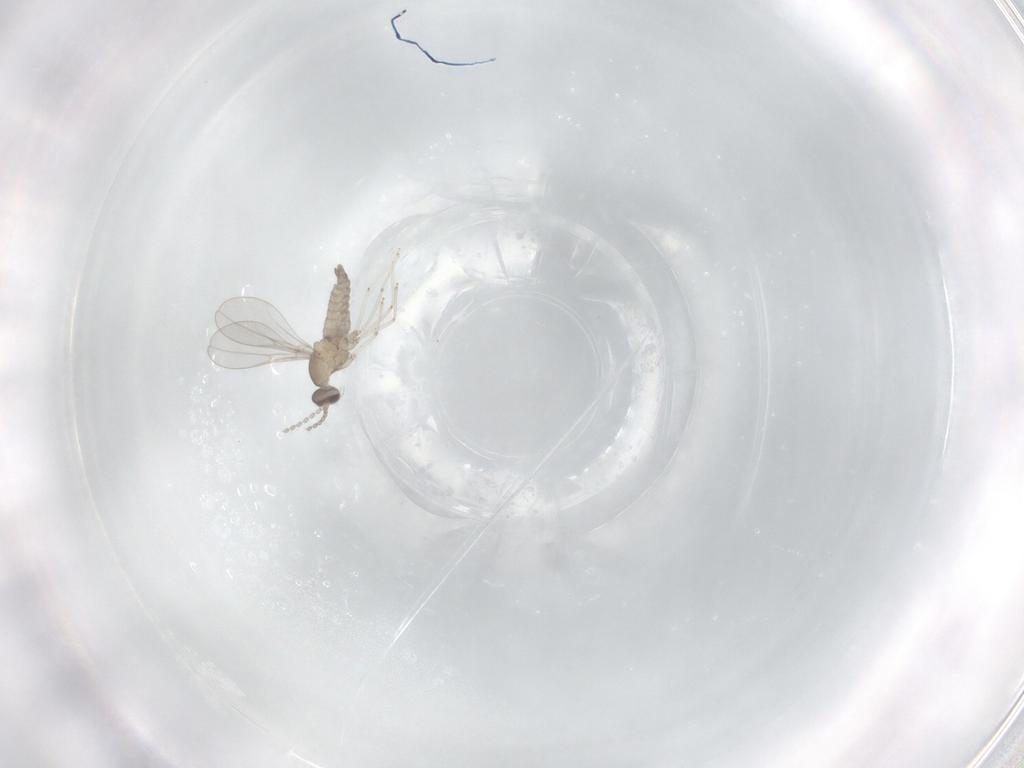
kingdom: Animalia
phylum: Arthropoda
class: Insecta
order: Diptera
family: Cecidomyiidae
